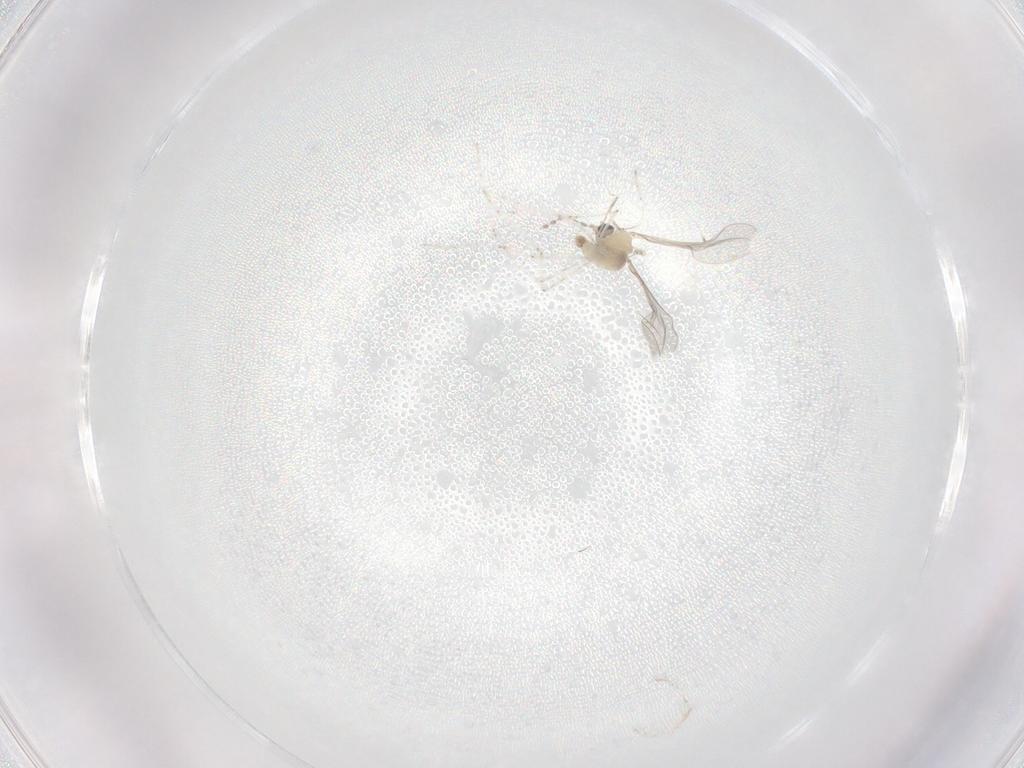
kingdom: Animalia
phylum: Arthropoda
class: Insecta
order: Diptera
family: Cecidomyiidae
